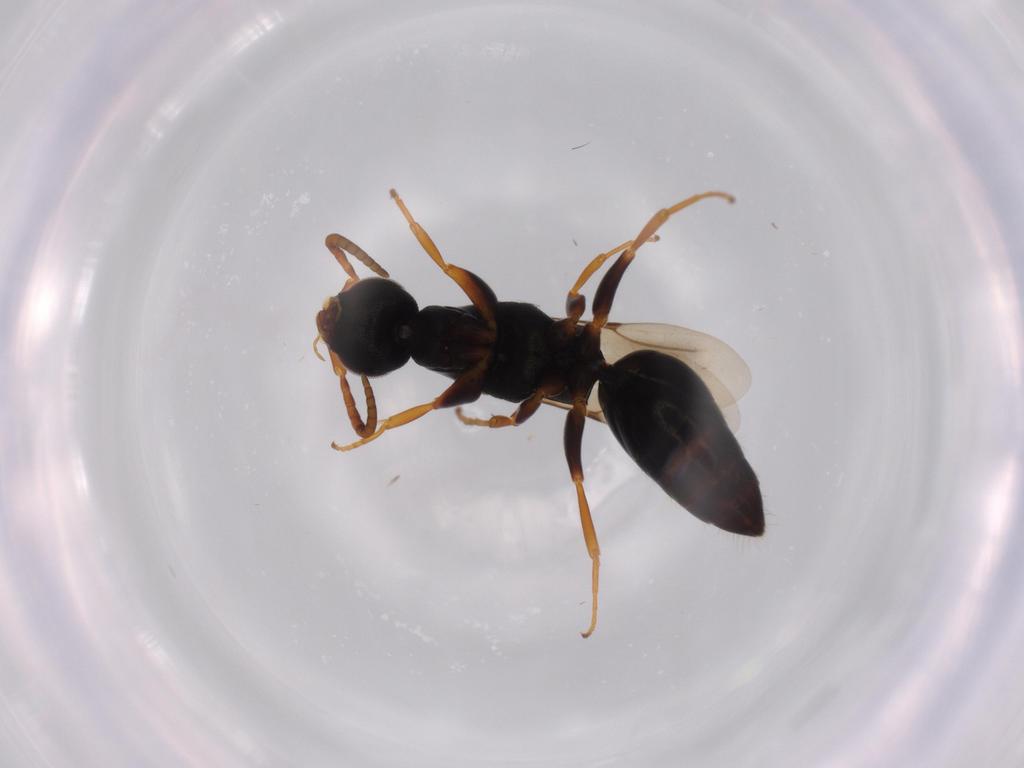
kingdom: Animalia
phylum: Arthropoda
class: Insecta
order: Hymenoptera
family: Bethylidae
